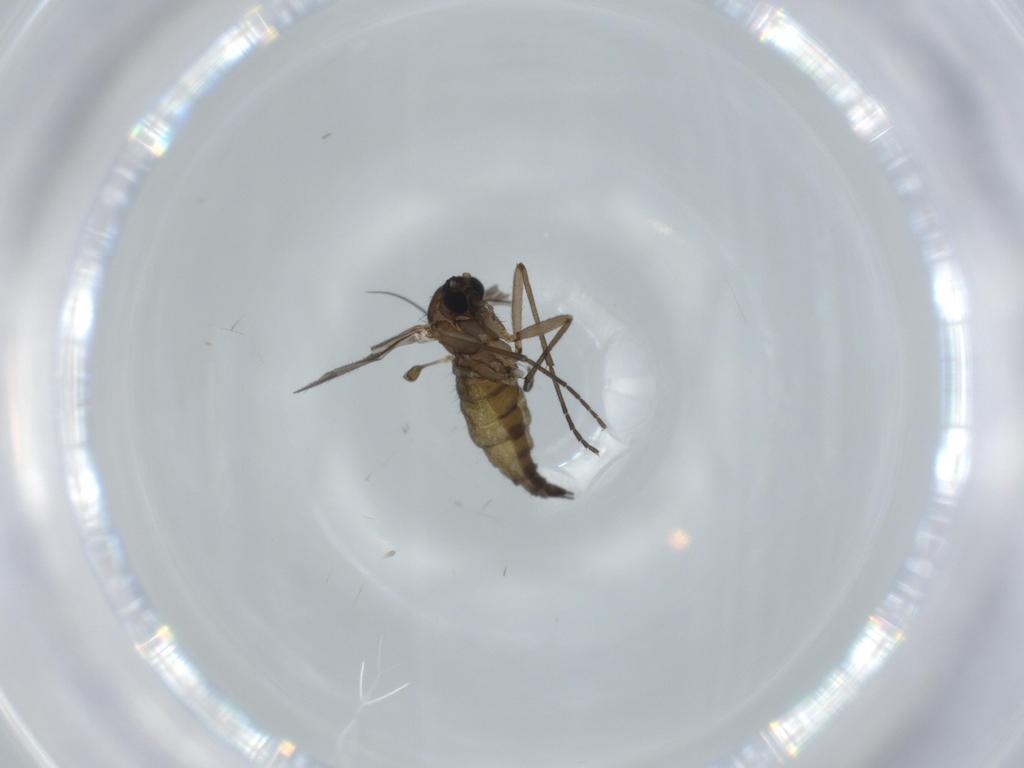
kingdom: Animalia
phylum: Arthropoda
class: Insecta
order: Diptera
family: Sciaridae
